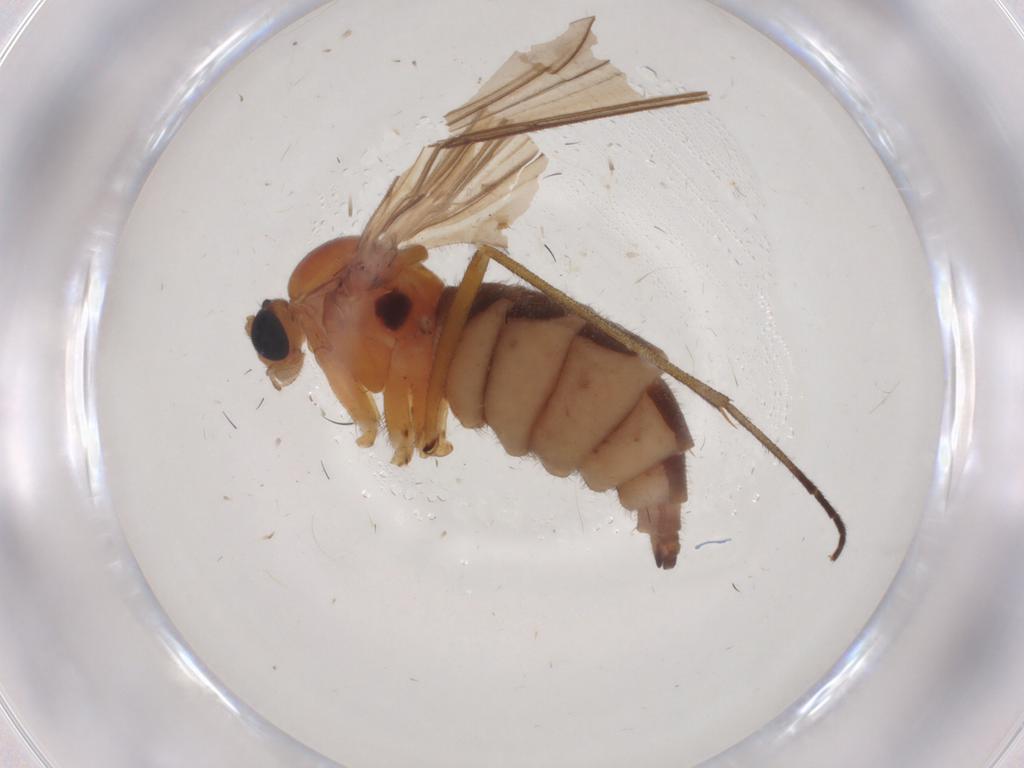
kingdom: Animalia
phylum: Arthropoda
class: Insecta
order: Diptera
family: Sciaridae
